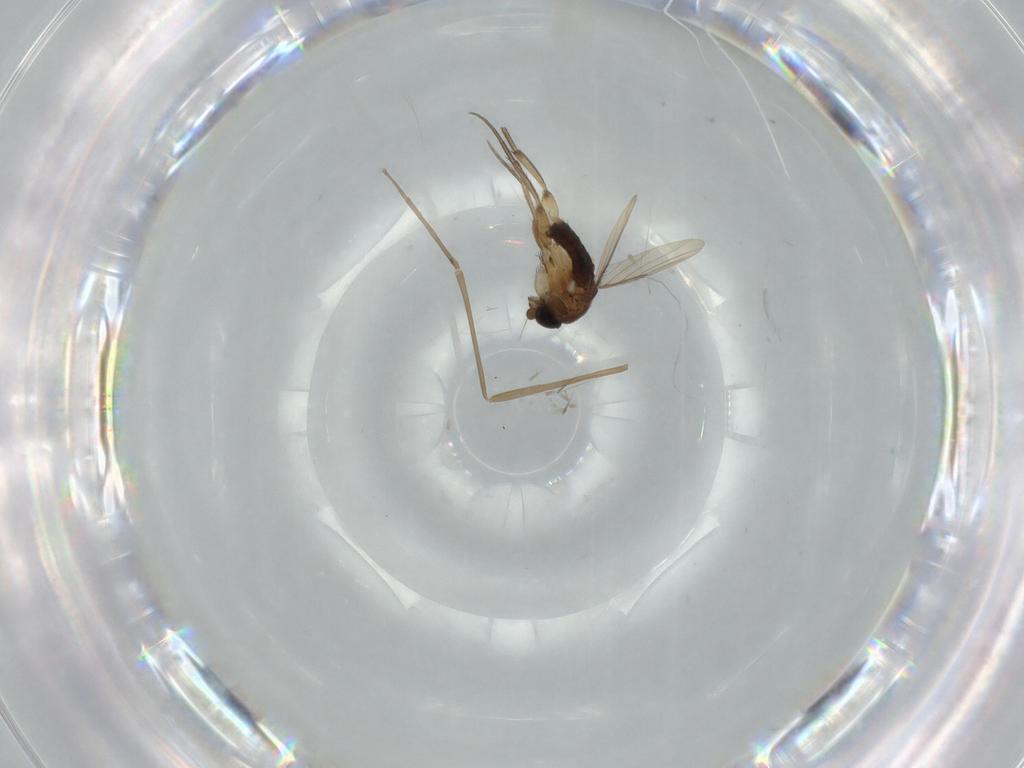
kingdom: Animalia
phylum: Arthropoda
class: Insecta
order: Diptera
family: Phoridae
